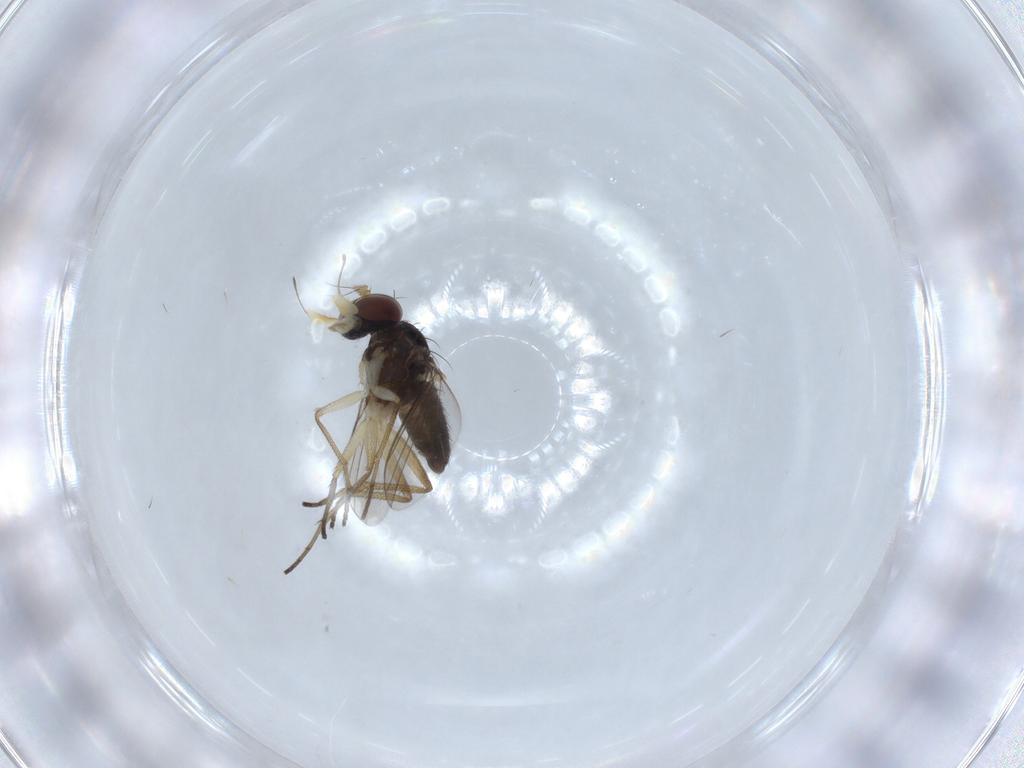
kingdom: Animalia
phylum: Arthropoda
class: Insecta
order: Diptera
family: Dolichopodidae
